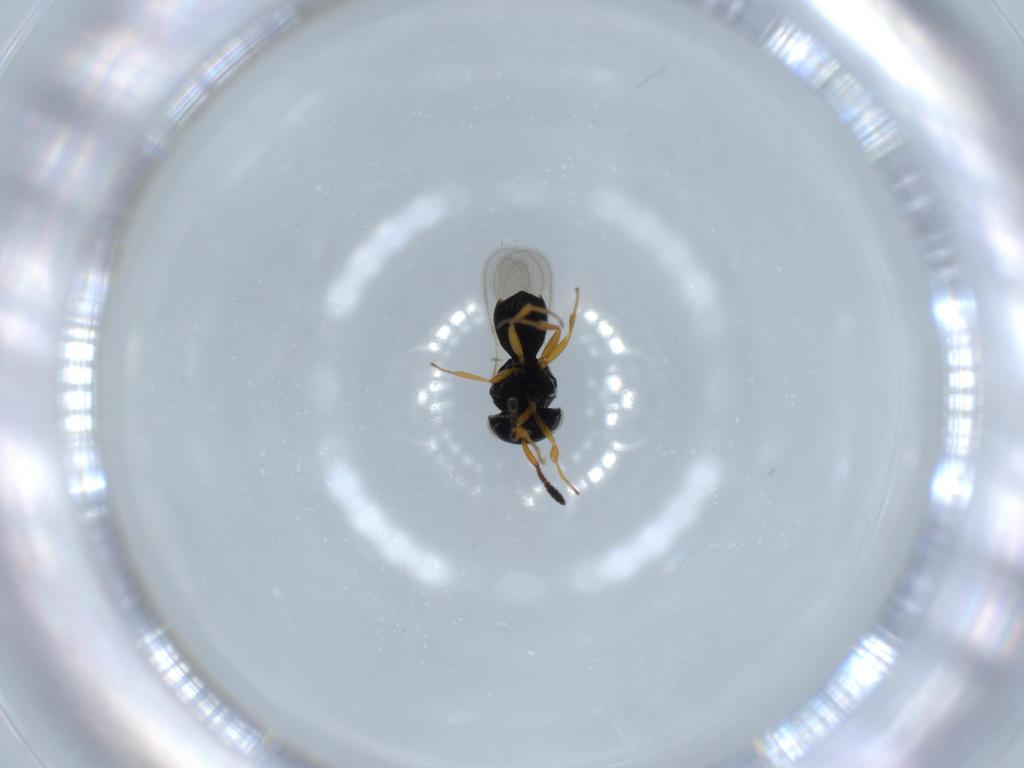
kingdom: Animalia
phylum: Arthropoda
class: Insecta
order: Hymenoptera
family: Scelionidae
